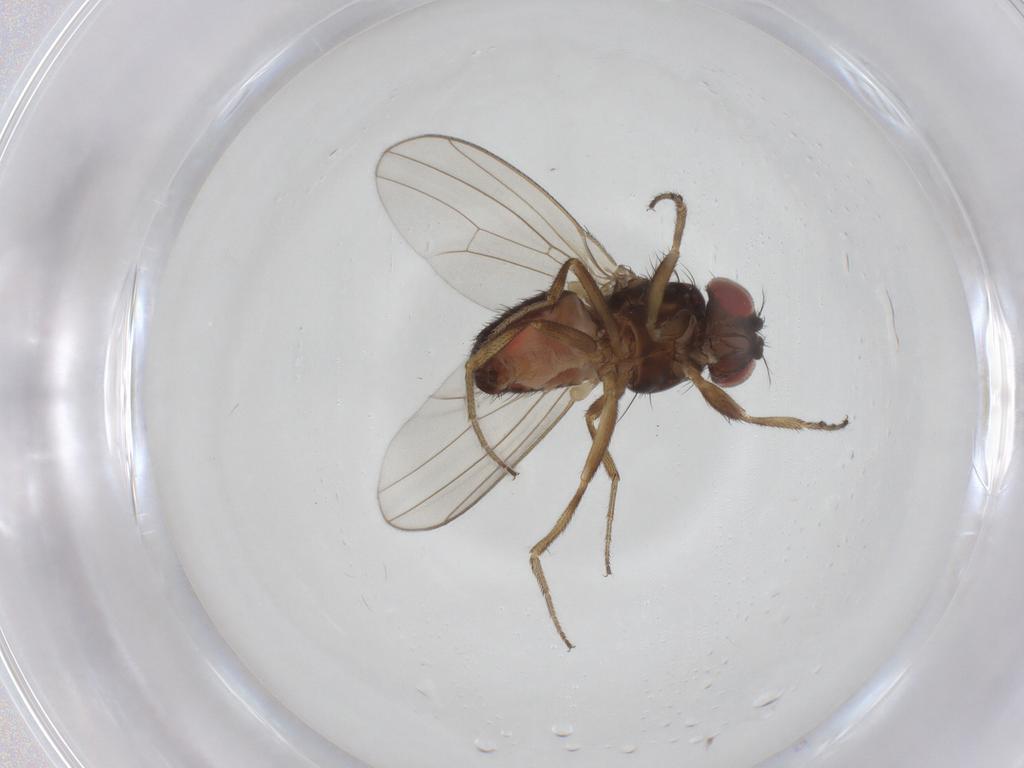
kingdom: Animalia
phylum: Arthropoda
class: Insecta
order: Diptera
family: Drosophilidae
